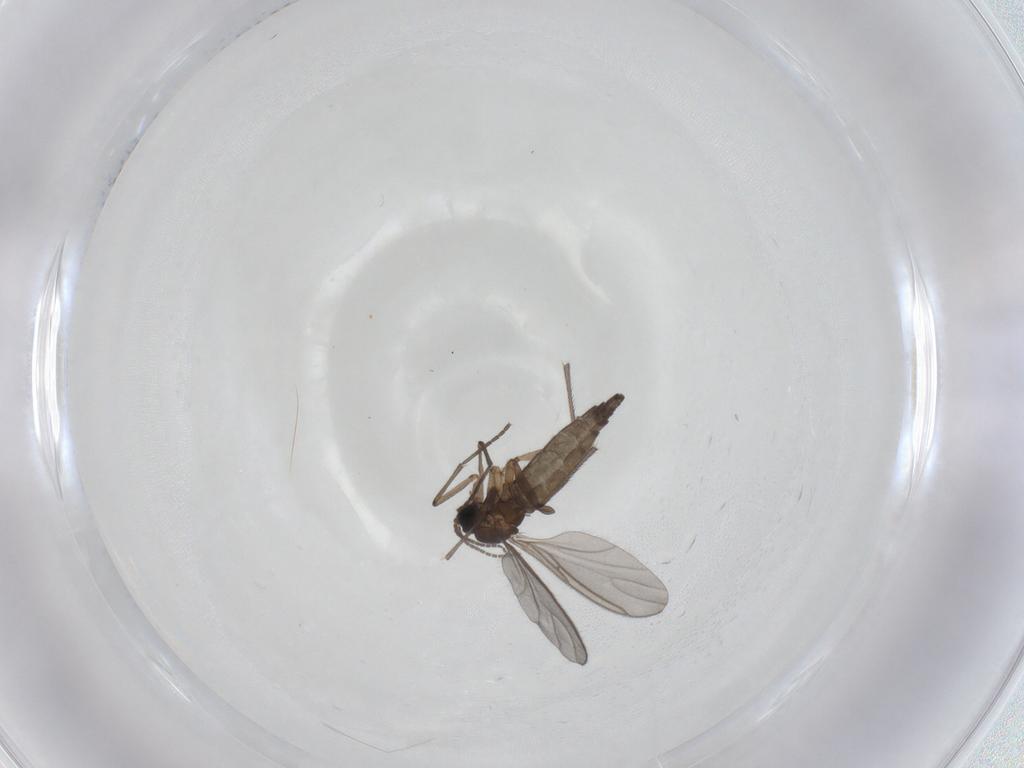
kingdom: Animalia
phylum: Arthropoda
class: Insecta
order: Diptera
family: Sciaridae
